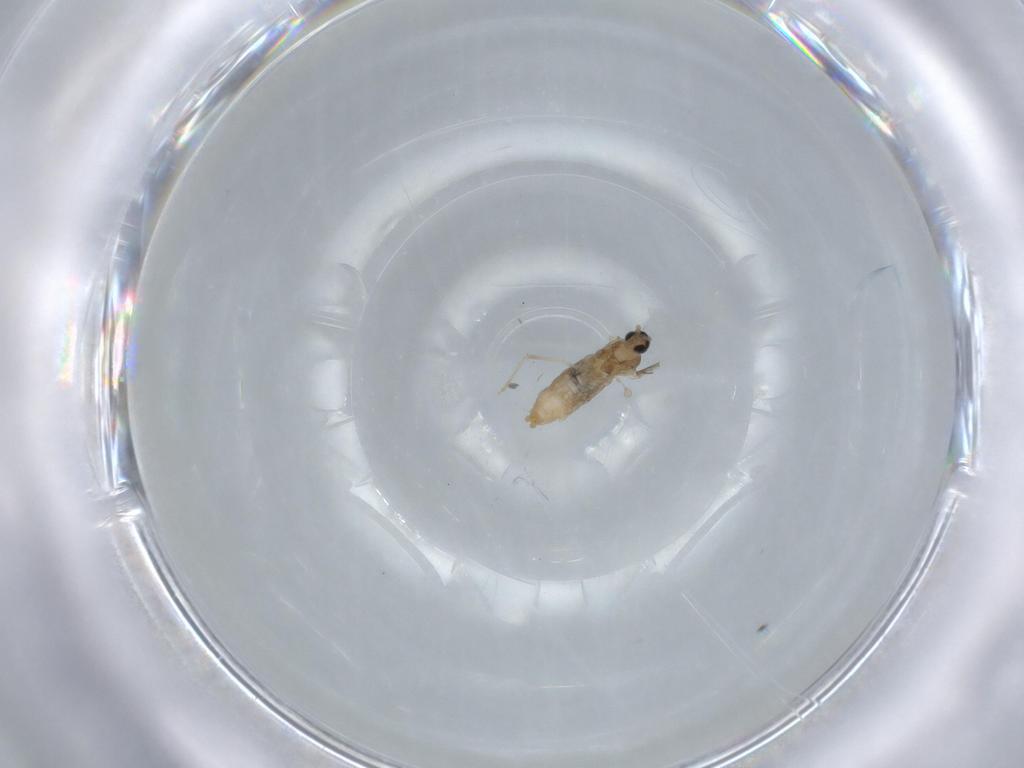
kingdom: Animalia
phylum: Arthropoda
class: Insecta
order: Diptera
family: Cecidomyiidae
